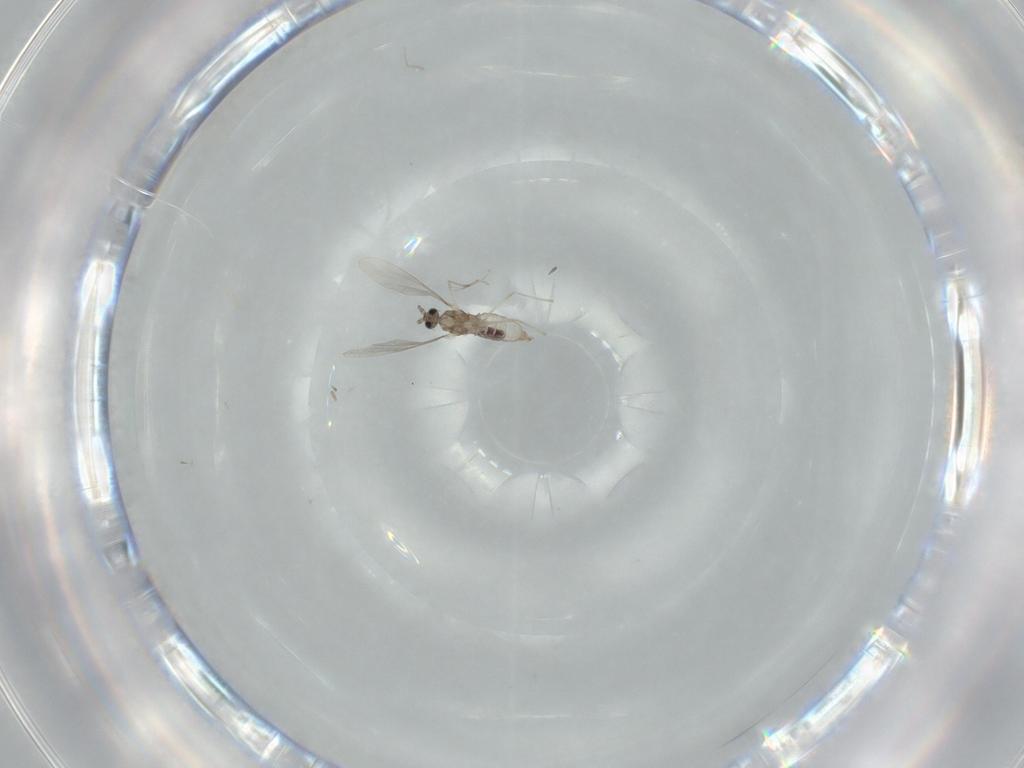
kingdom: Animalia
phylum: Arthropoda
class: Insecta
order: Diptera
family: Cecidomyiidae
